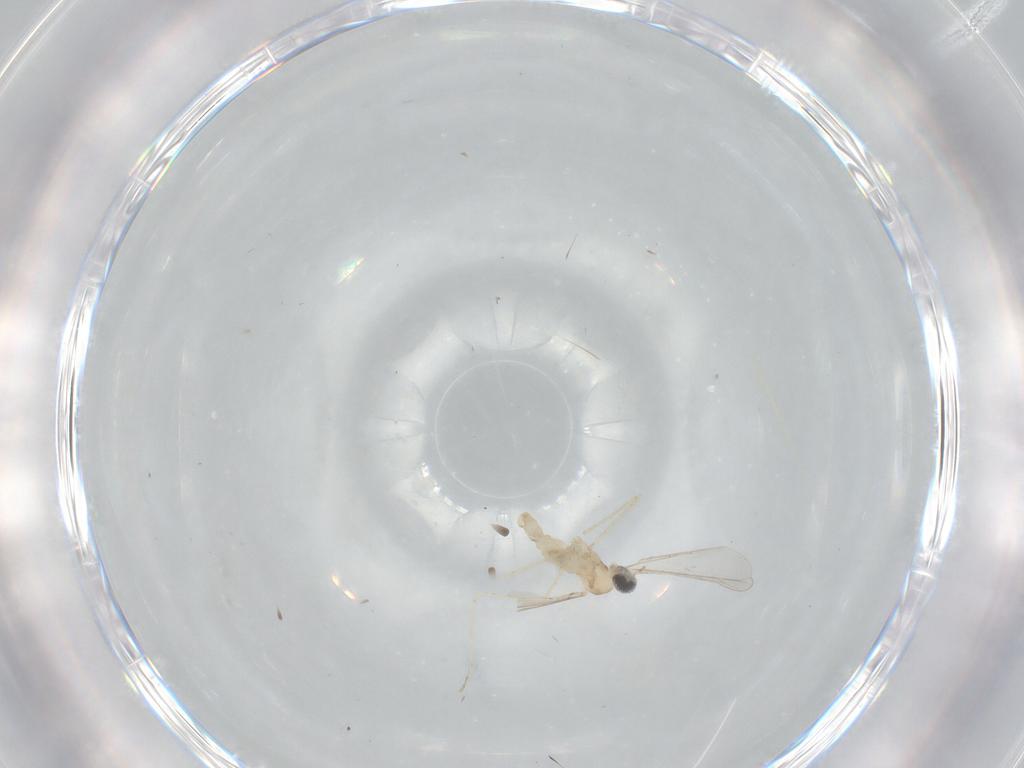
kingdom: Animalia
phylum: Arthropoda
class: Insecta
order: Diptera
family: Cecidomyiidae
